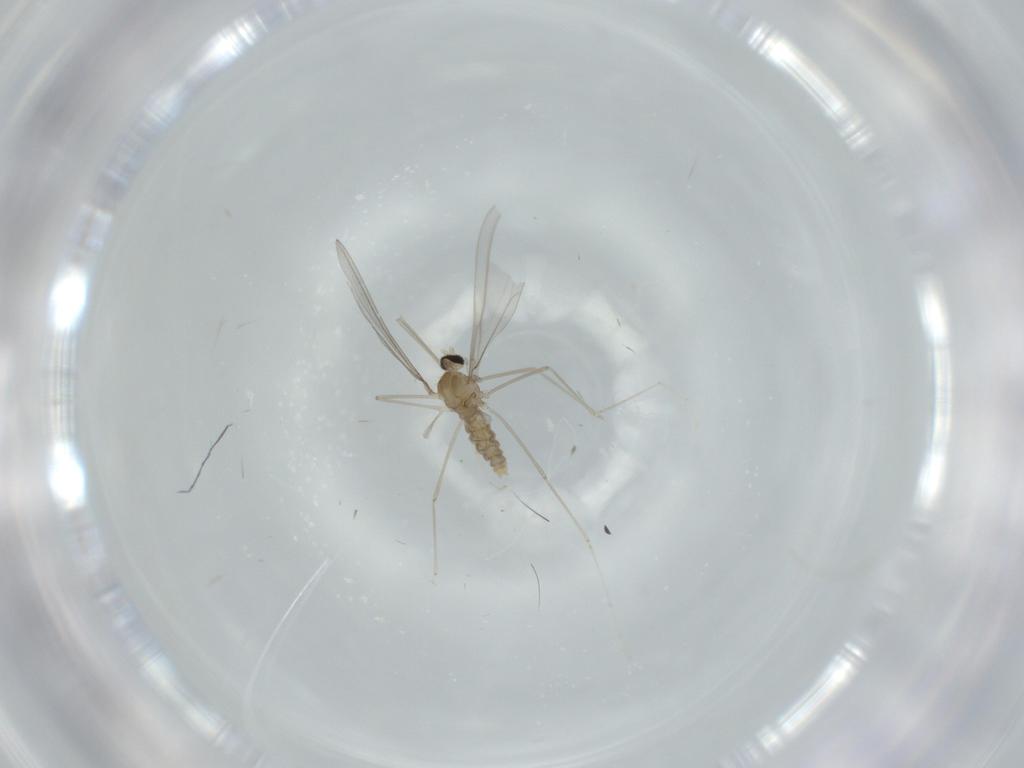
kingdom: Animalia
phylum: Arthropoda
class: Insecta
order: Diptera
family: Cecidomyiidae
